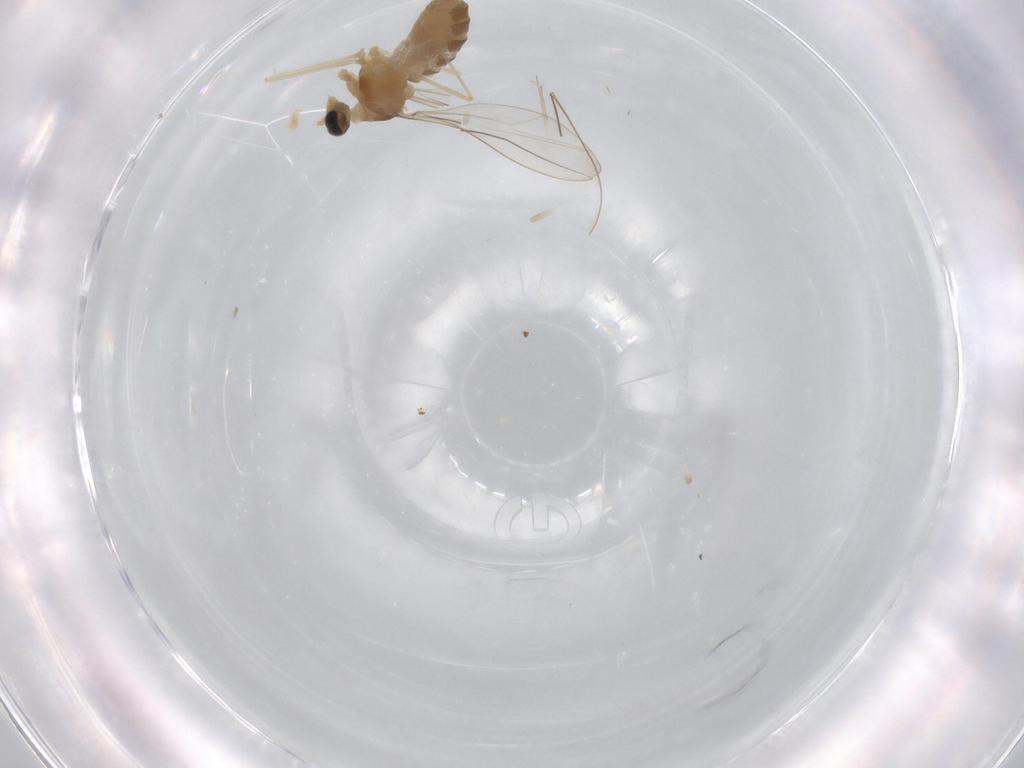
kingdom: Animalia
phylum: Arthropoda
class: Insecta
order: Diptera
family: Cecidomyiidae
